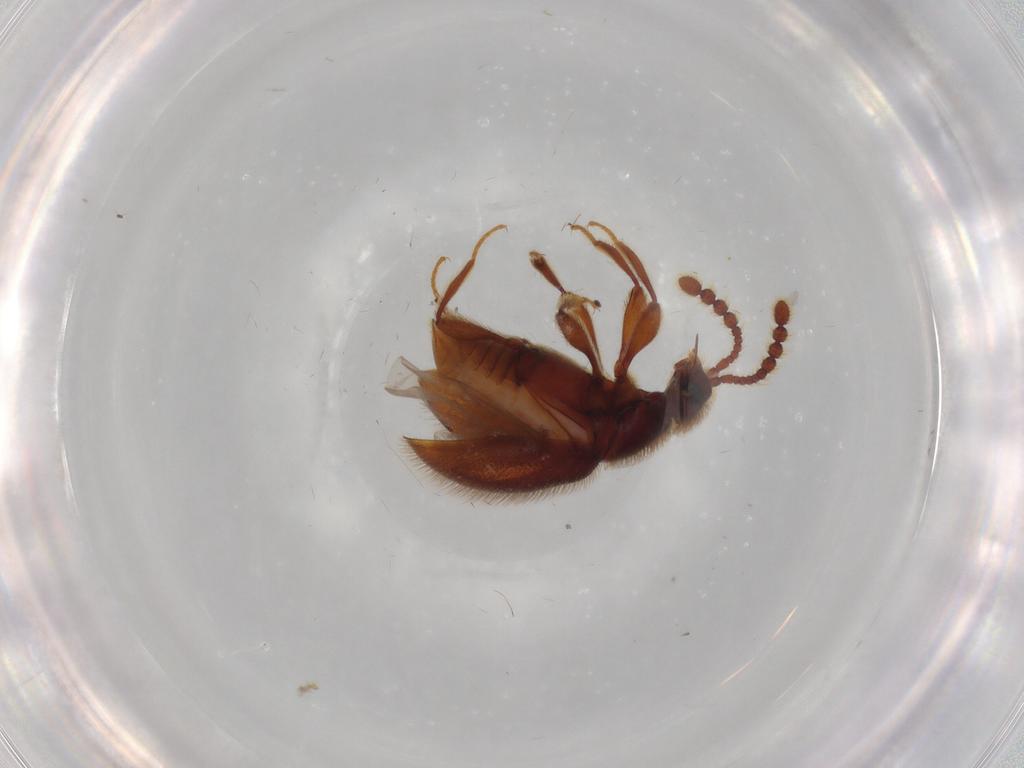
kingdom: Animalia
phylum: Arthropoda
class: Insecta
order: Coleoptera
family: Staphylinidae
